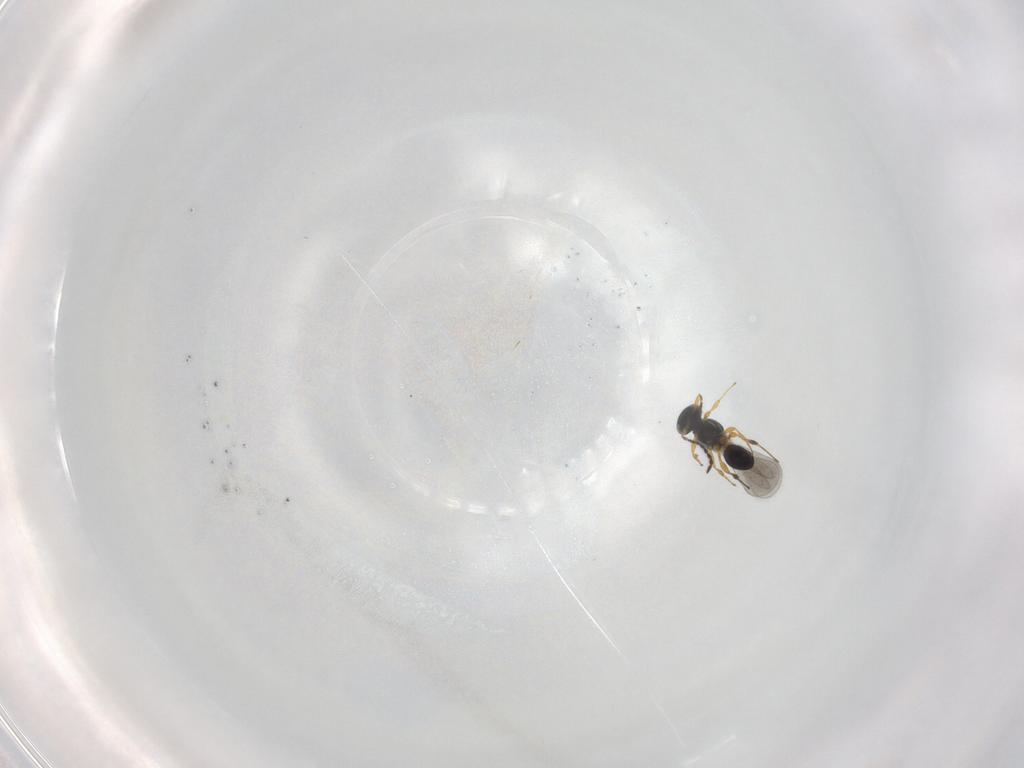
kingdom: Animalia
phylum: Arthropoda
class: Insecta
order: Hymenoptera
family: Platygastridae
